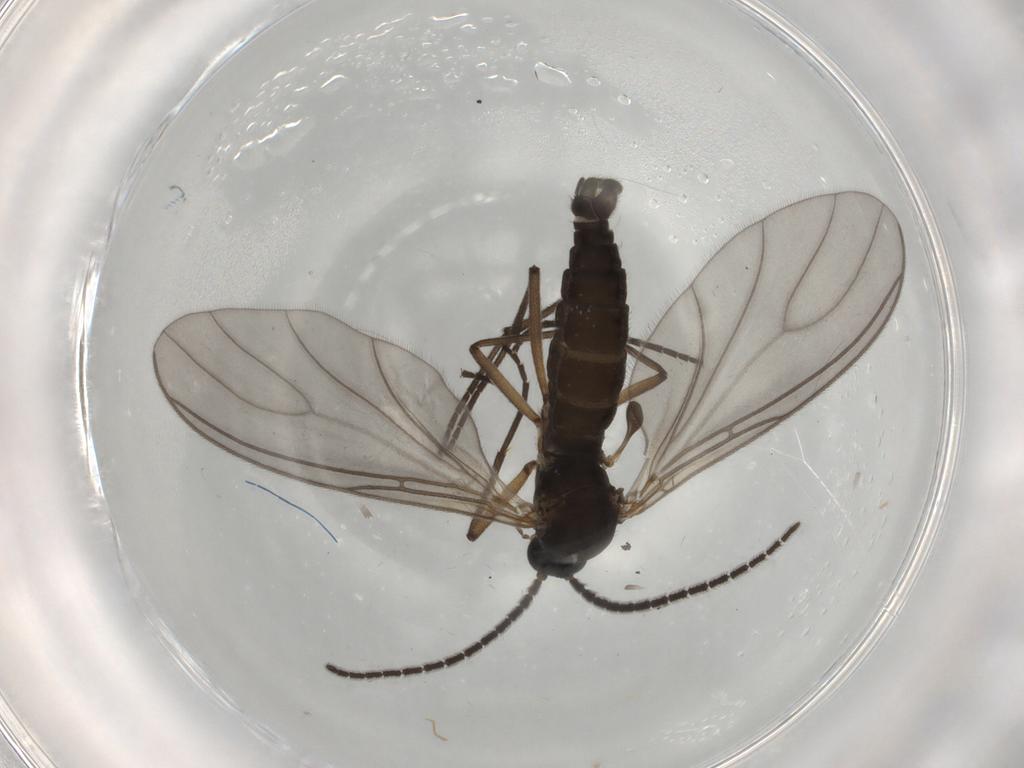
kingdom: Animalia
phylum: Arthropoda
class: Insecta
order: Diptera
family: Sciaridae
